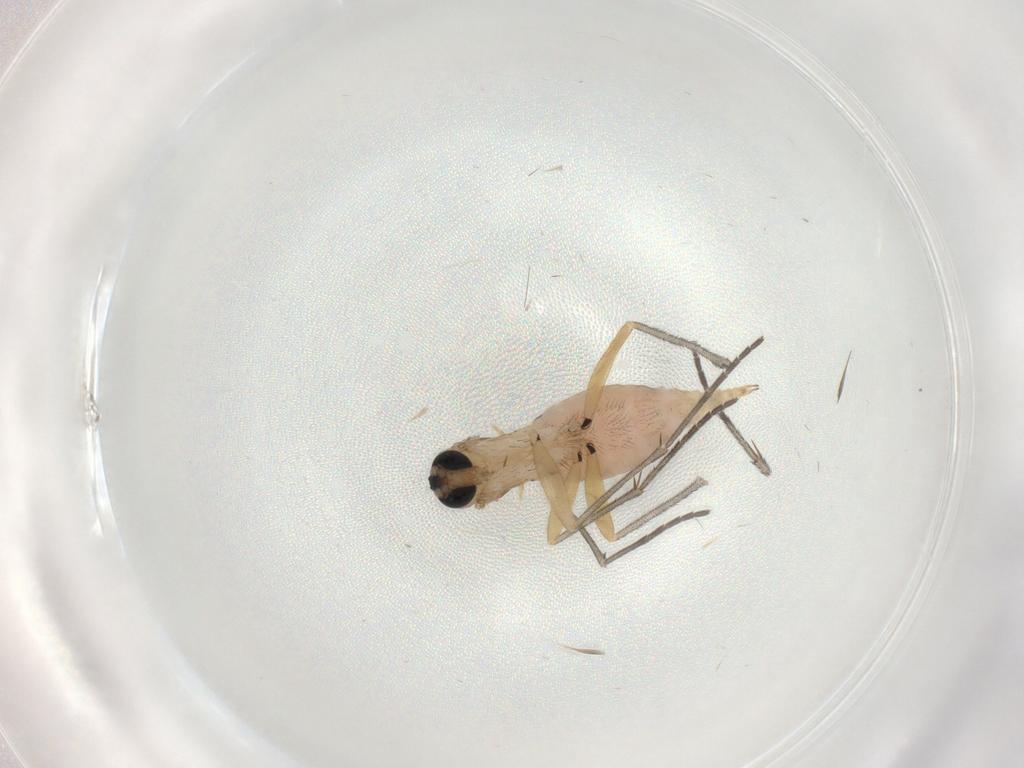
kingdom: Animalia
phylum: Arthropoda
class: Insecta
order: Diptera
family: Sciaridae
